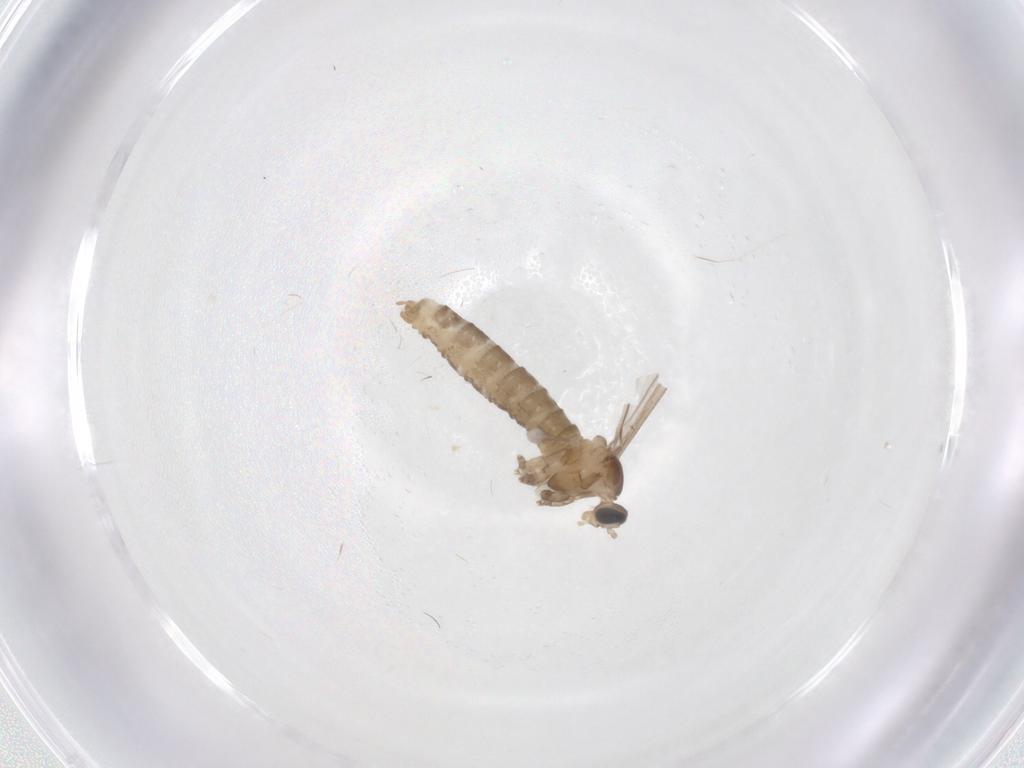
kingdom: Animalia
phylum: Arthropoda
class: Insecta
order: Diptera
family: Cecidomyiidae
